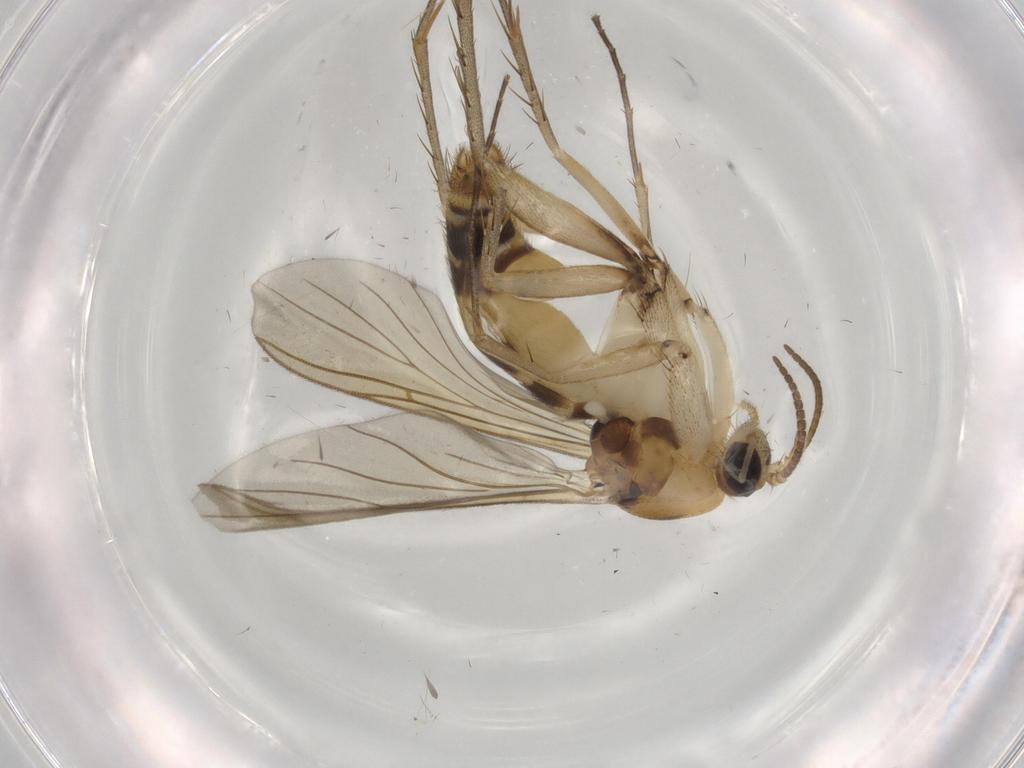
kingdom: Animalia
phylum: Arthropoda
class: Insecta
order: Diptera
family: Mycetophilidae
